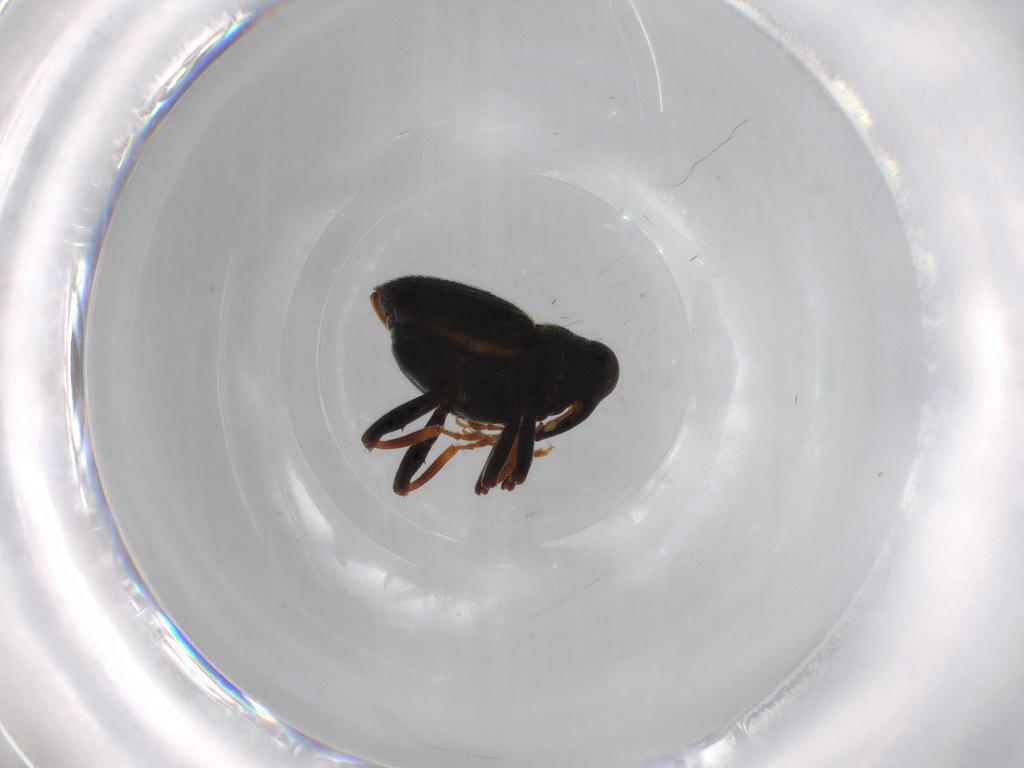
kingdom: Animalia
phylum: Arthropoda
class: Insecta
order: Coleoptera
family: Curculionidae
